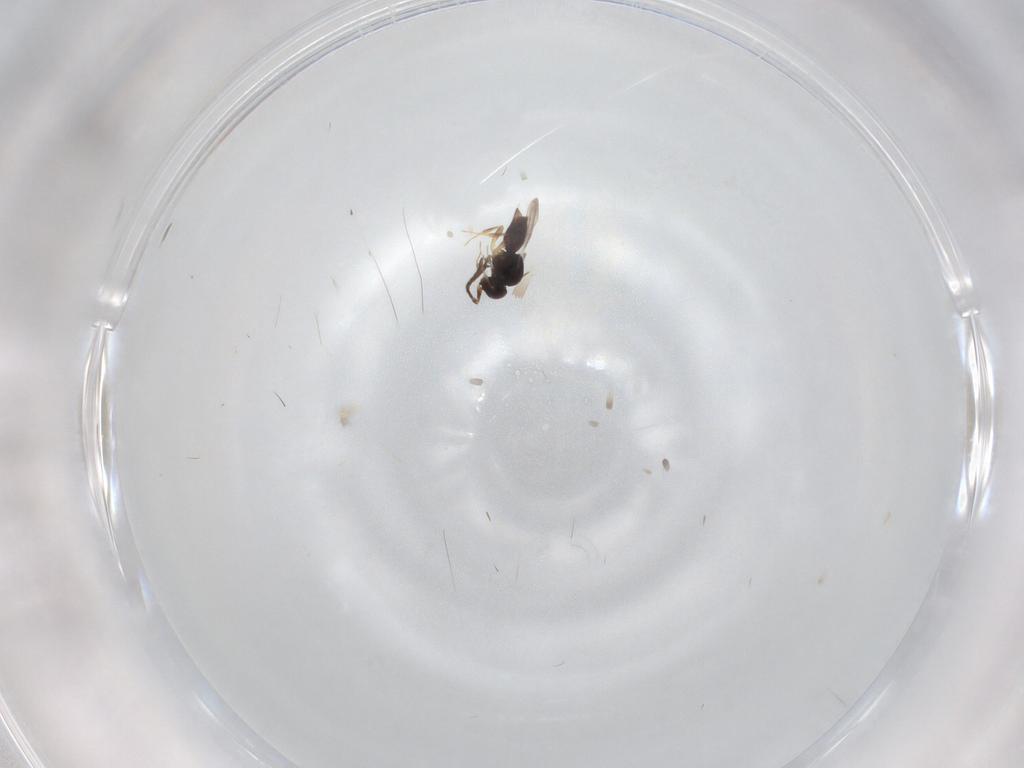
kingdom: Animalia
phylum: Arthropoda
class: Insecta
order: Hymenoptera
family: Ceraphronidae
